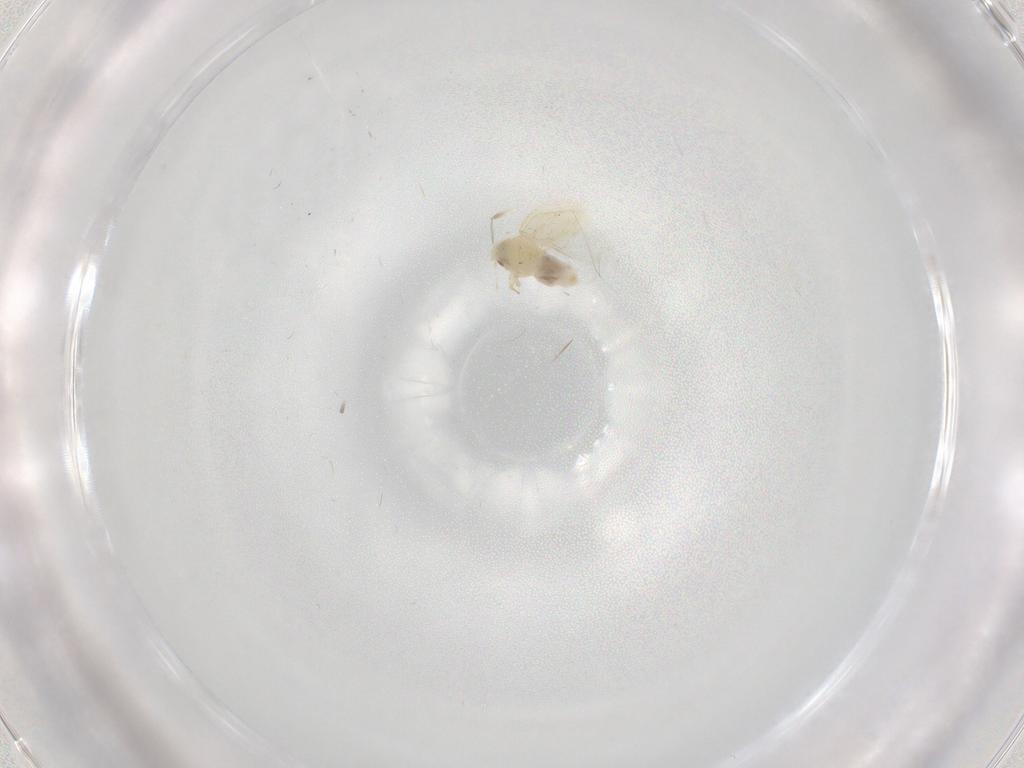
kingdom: Animalia
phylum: Arthropoda
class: Insecta
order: Hemiptera
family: Aleyrodidae
